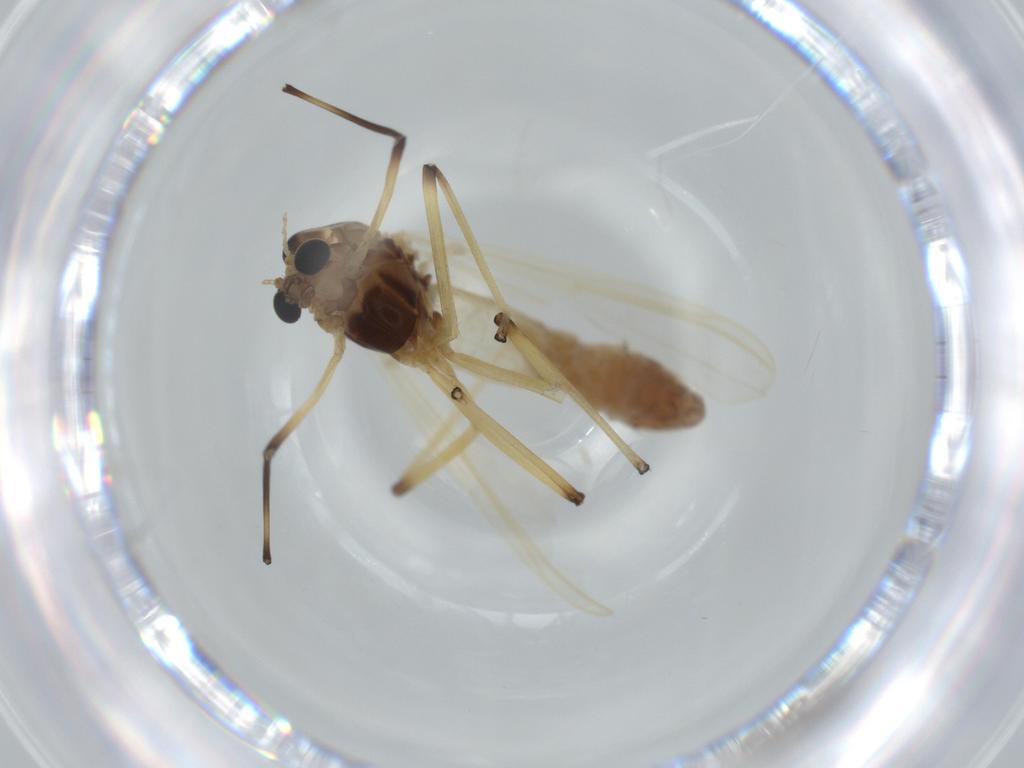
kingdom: Animalia
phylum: Arthropoda
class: Insecta
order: Diptera
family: Chironomidae
